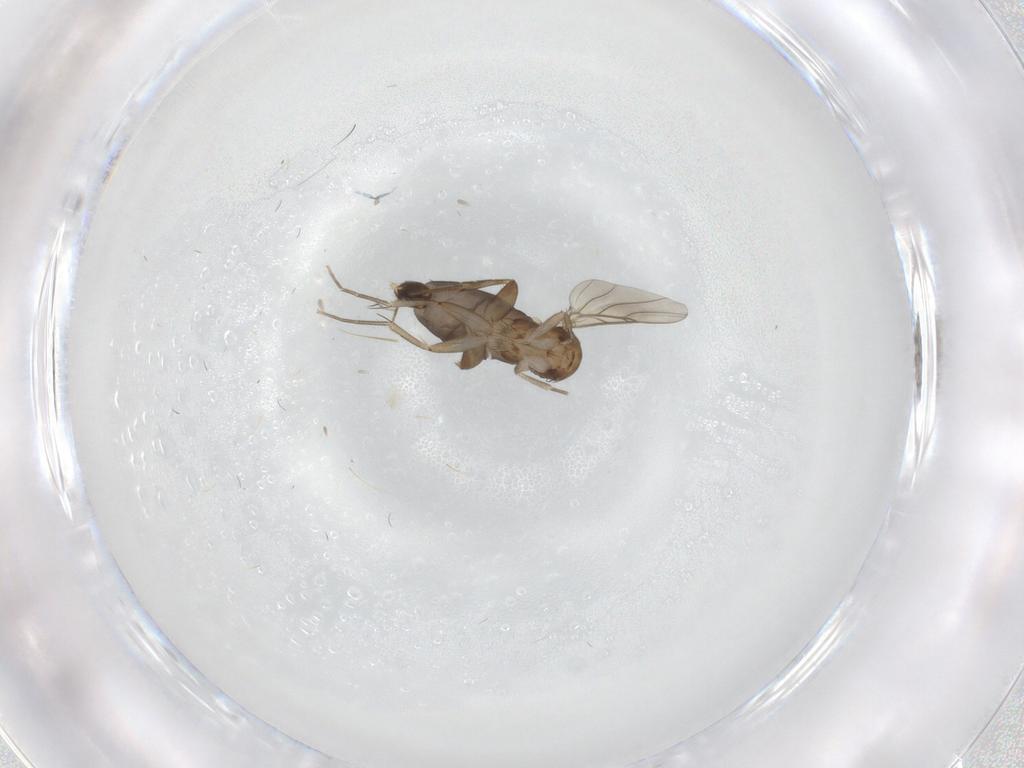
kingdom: Animalia
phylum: Arthropoda
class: Insecta
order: Diptera
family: Phoridae
